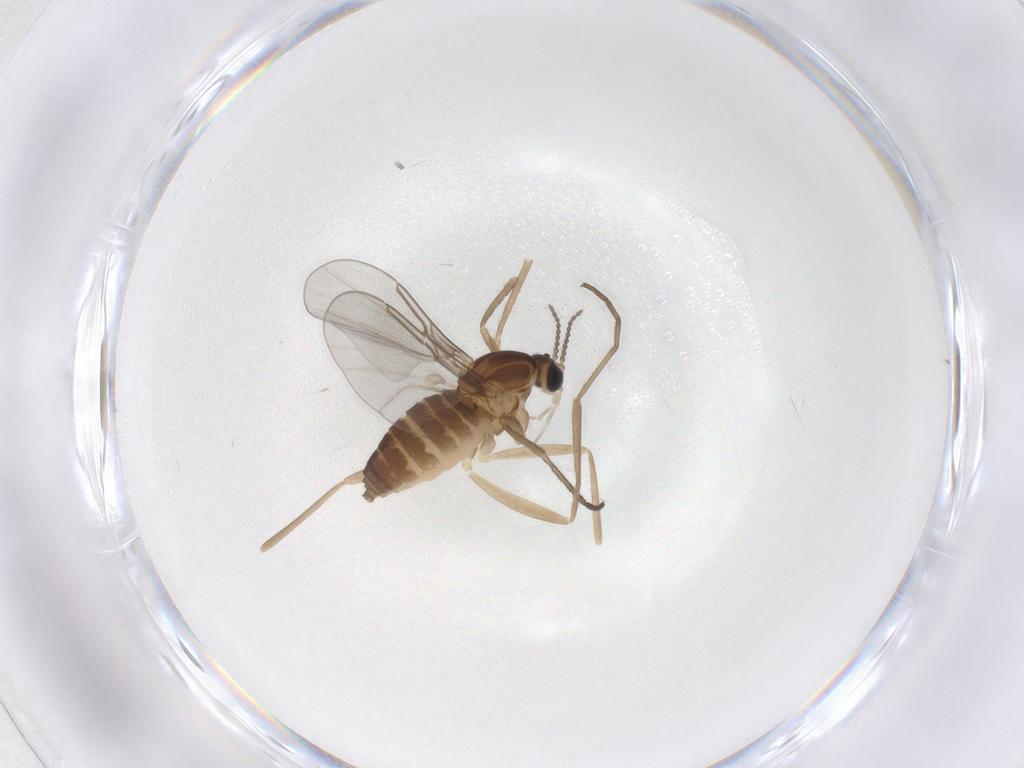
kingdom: Animalia
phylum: Arthropoda
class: Insecta
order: Diptera
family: Cecidomyiidae
